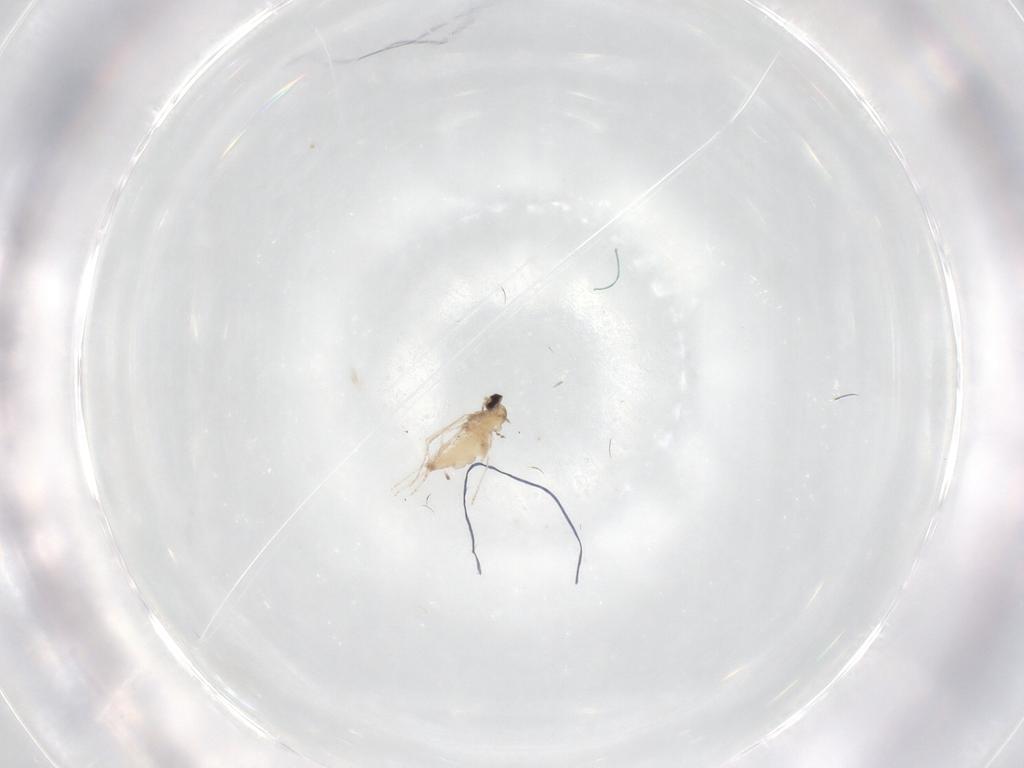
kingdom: Animalia
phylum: Arthropoda
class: Insecta
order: Diptera
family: Cecidomyiidae
